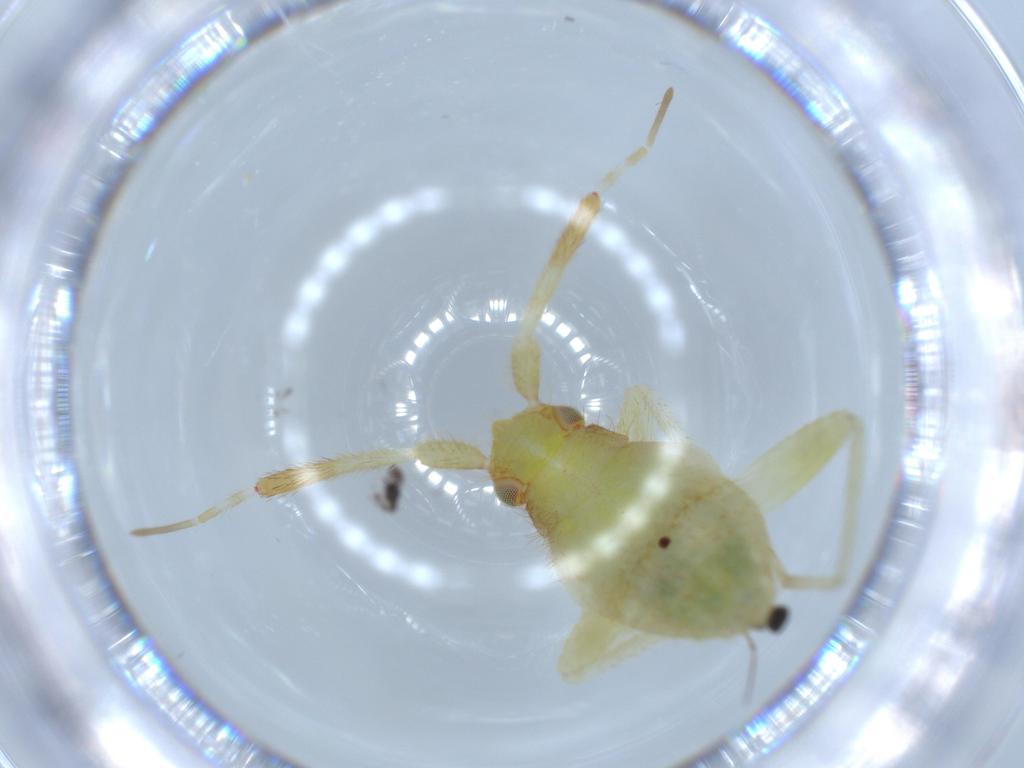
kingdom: Animalia
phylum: Arthropoda
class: Insecta
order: Hemiptera
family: Miridae
